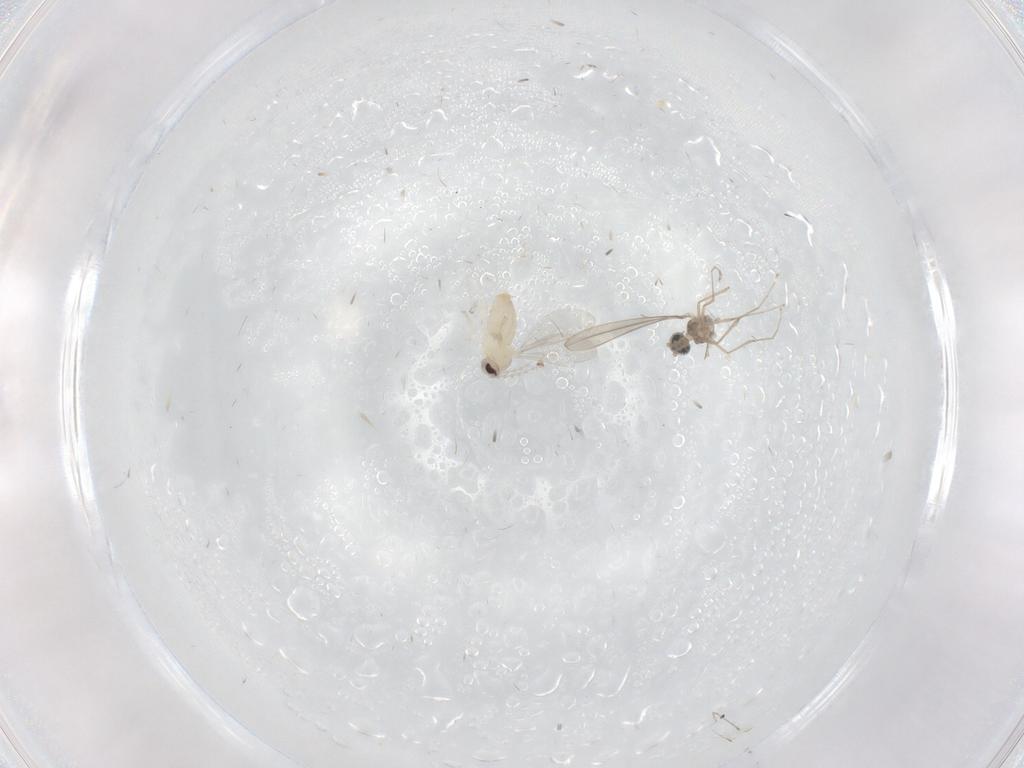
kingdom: Animalia
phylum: Arthropoda
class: Insecta
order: Diptera
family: Cecidomyiidae
